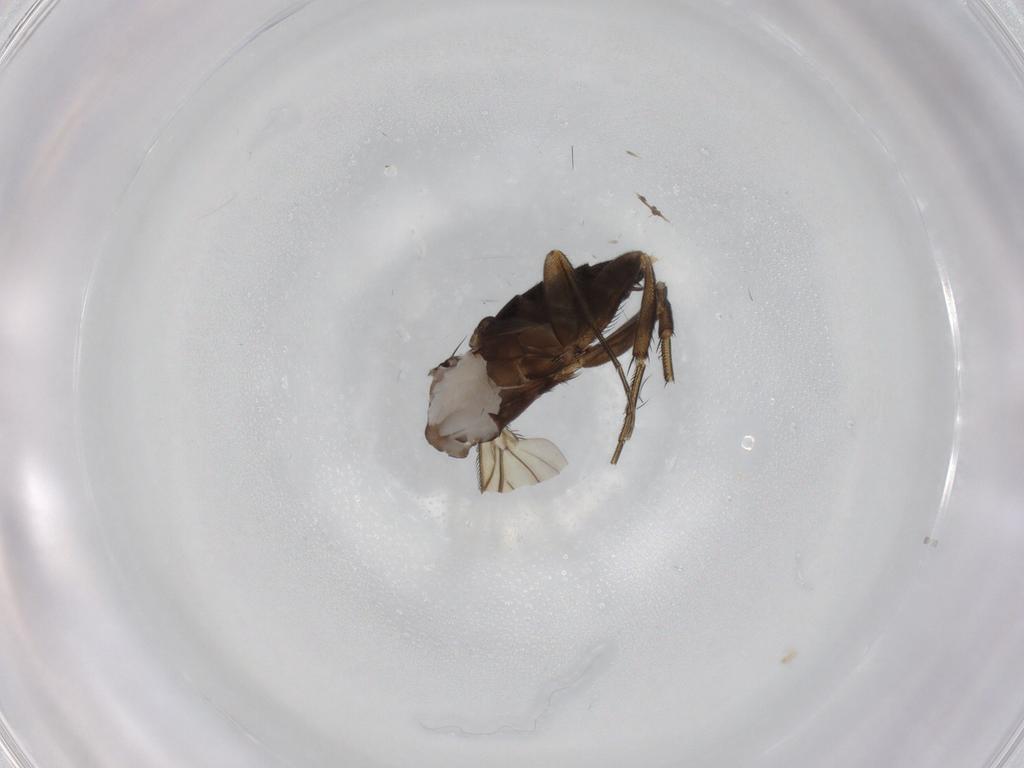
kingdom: Animalia
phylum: Arthropoda
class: Insecta
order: Diptera
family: Phoridae
